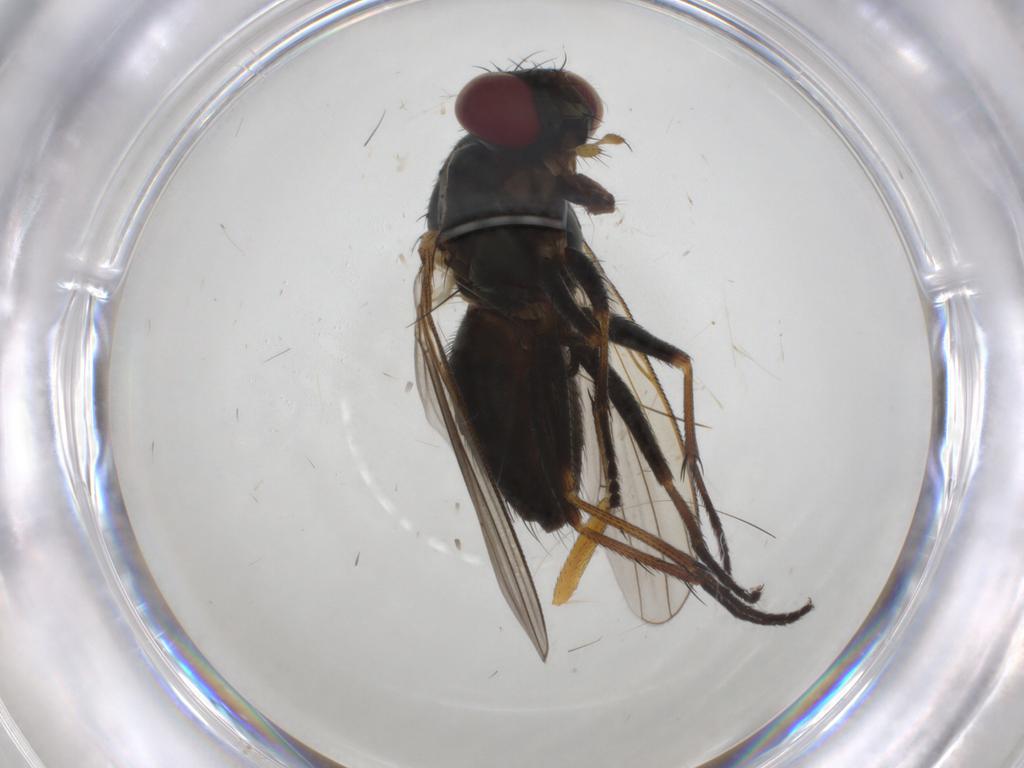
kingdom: Animalia
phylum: Arthropoda
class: Insecta
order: Diptera
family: Muscidae
